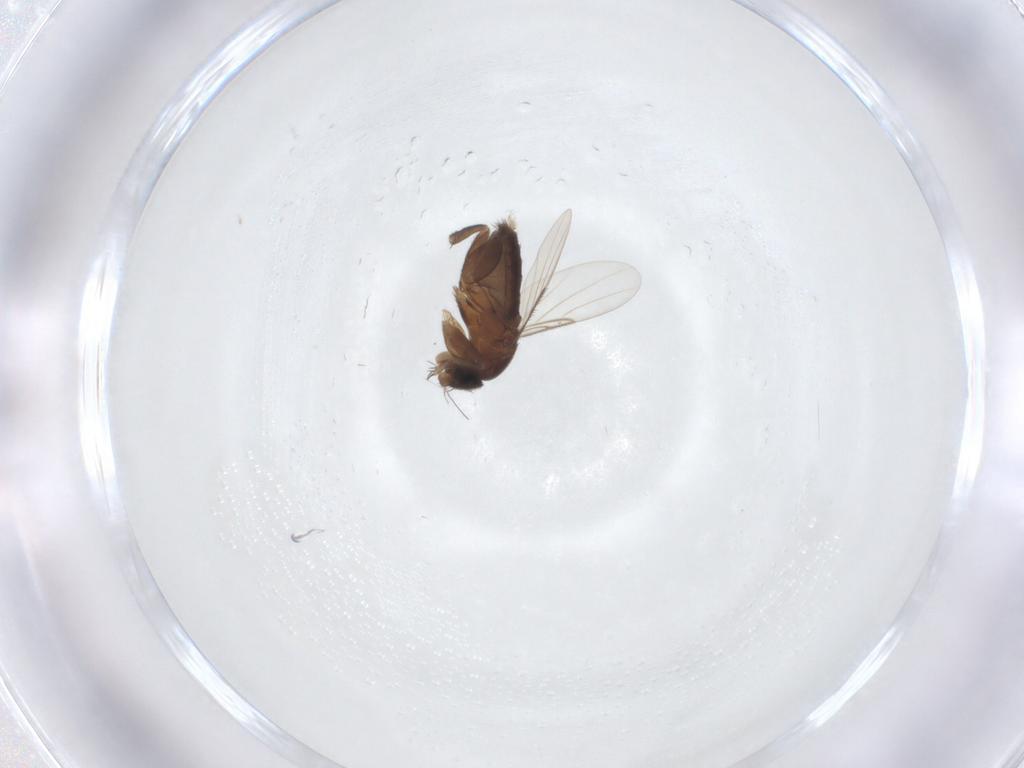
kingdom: Animalia
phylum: Arthropoda
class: Insecta
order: Diptera
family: Phoridae
